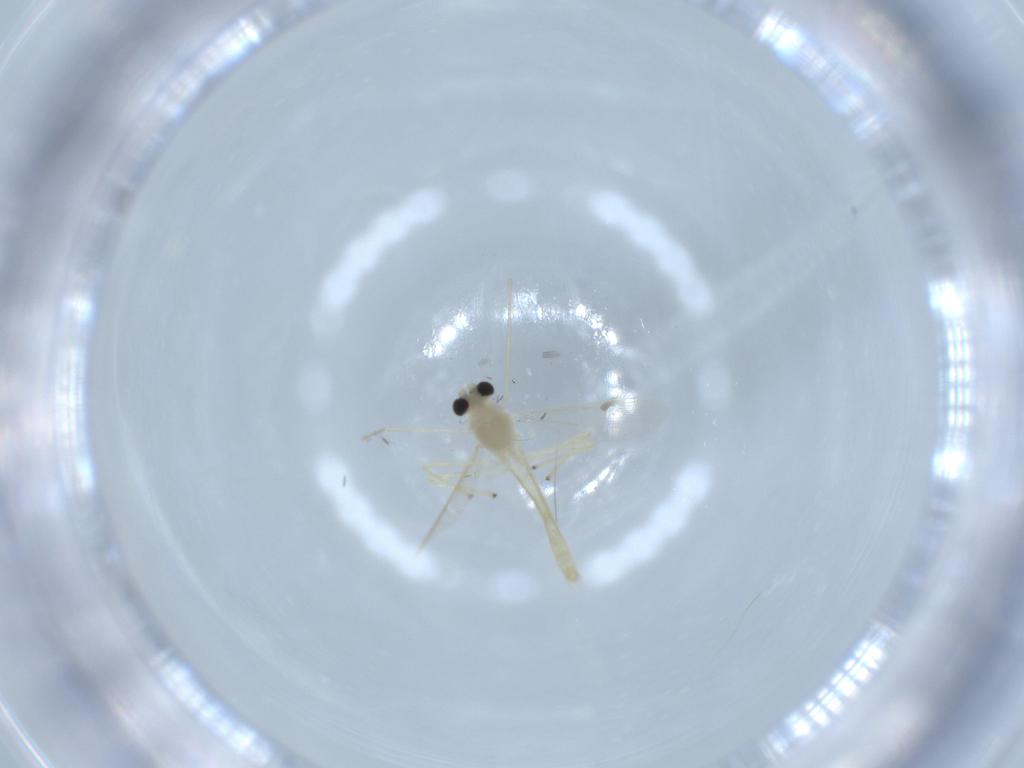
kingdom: Animalia
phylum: Arthropoda
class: Insecta
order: Diptera
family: Chironomidae
